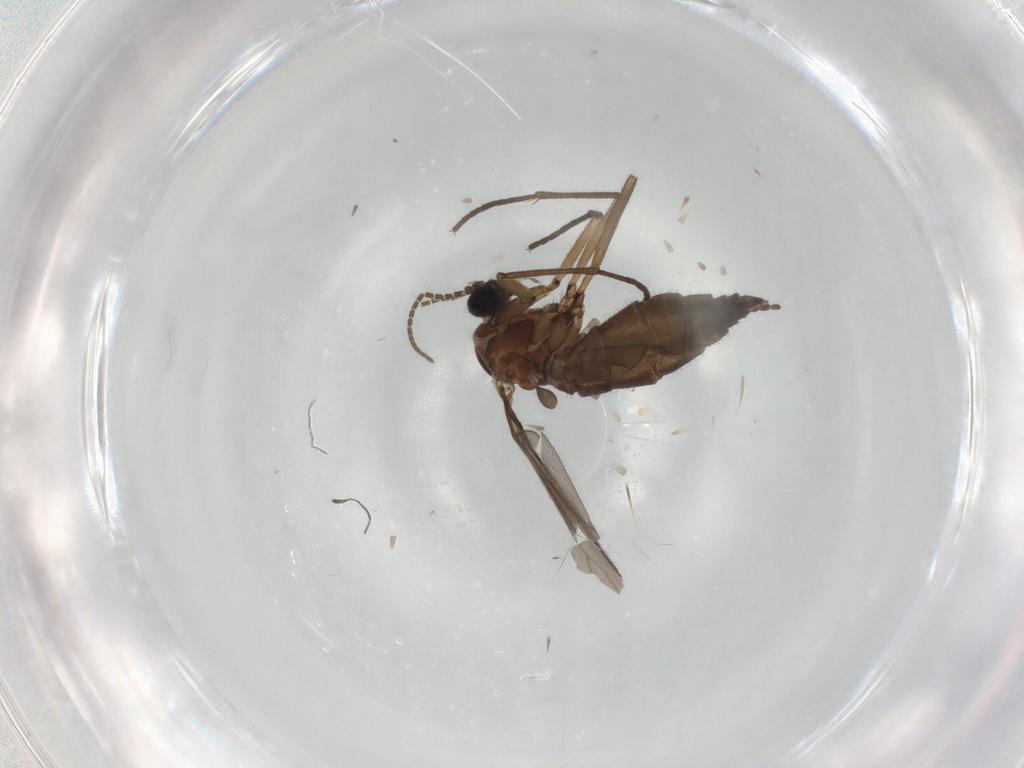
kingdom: Animalia
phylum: Arthropoda
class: Insecta
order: Diptera
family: Sciaridae
